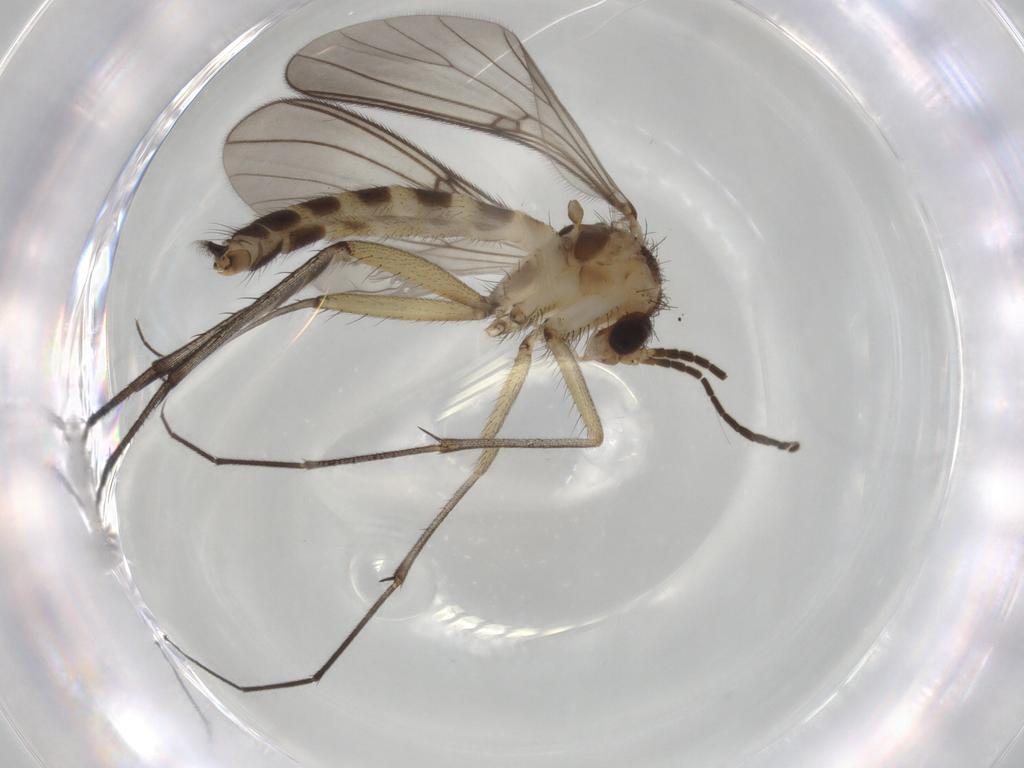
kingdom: Animalia
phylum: Arthropoda
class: Insecta
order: Diptera
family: Mycetophilidae
